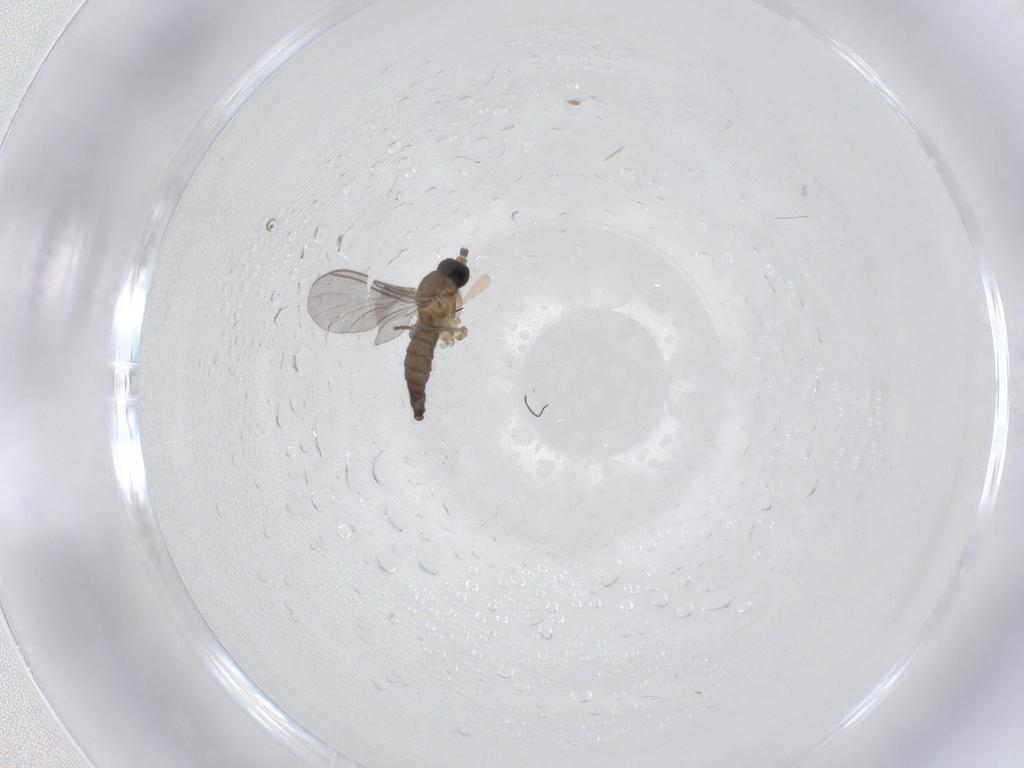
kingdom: Animalia
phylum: Arthropoda
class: Insecta
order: Diptera
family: Sciaridae
